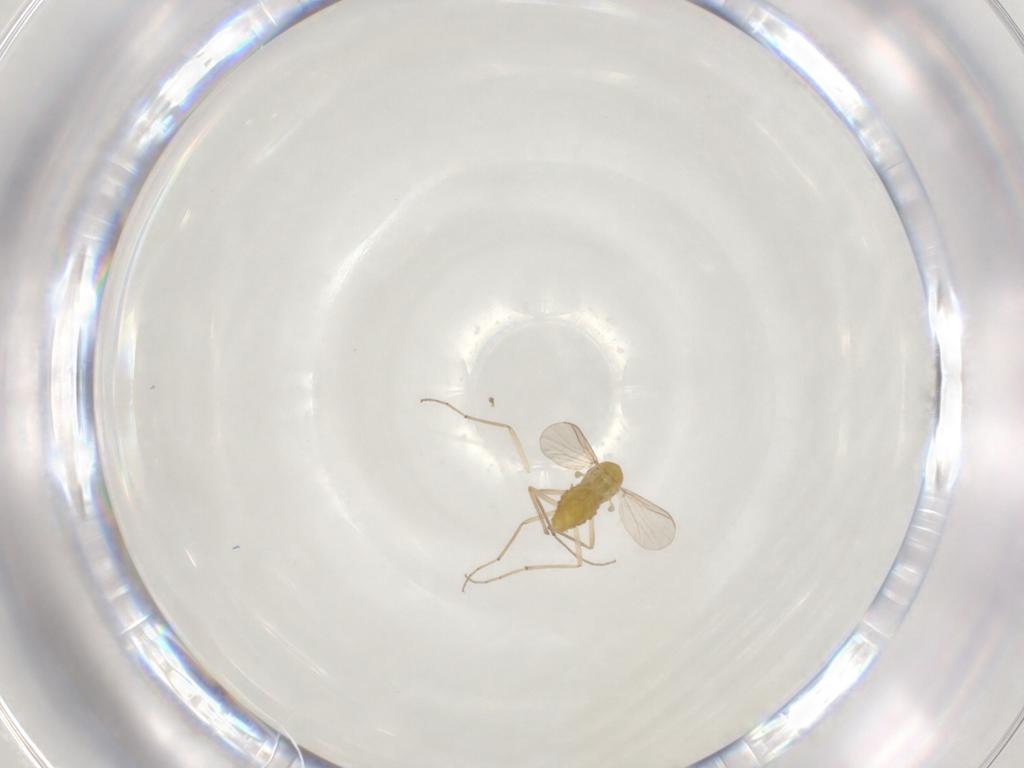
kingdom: Animalia
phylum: Arthropoda
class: Insecta
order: Diptera
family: Chironomidae
